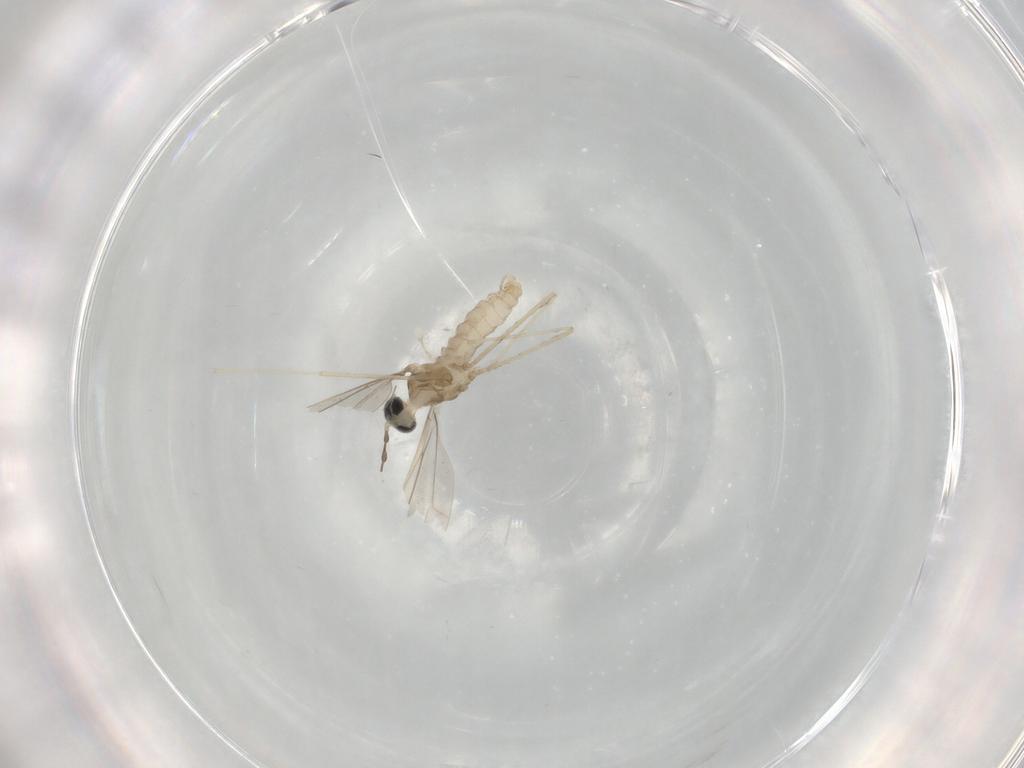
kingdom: Animalia
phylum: Arthropoda
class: Insecta
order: Diptera
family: Cecidomyiidae
